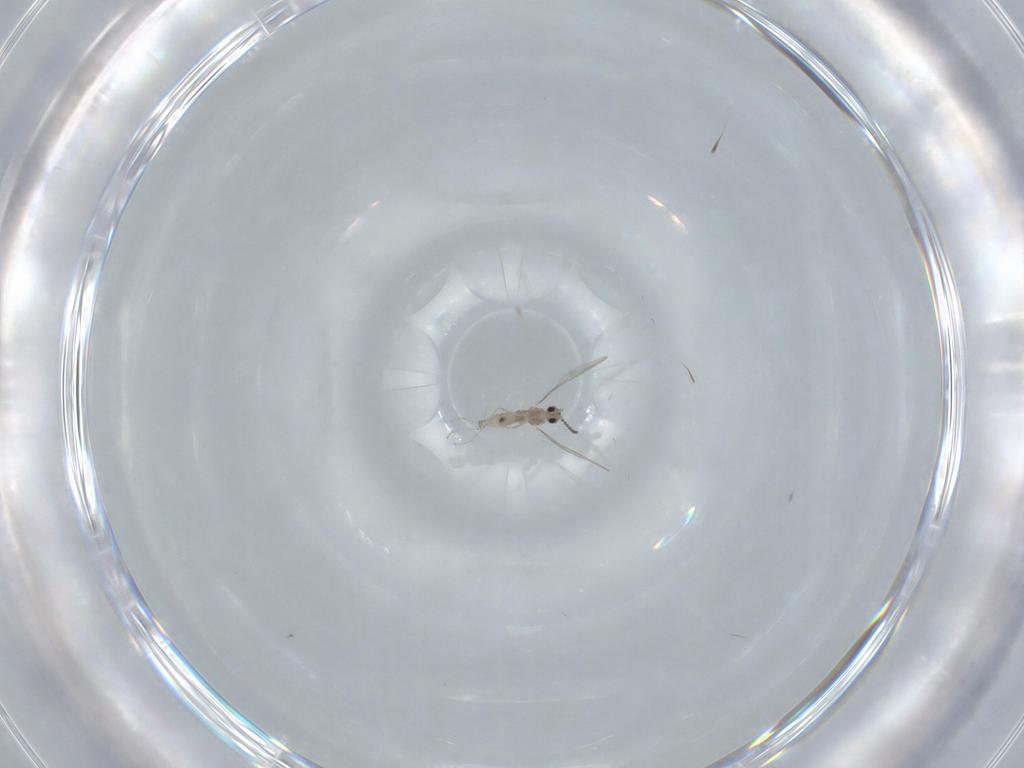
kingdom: Animalia
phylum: Arthropoda
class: Insecta
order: Diptera
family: Cecidomyiidae
